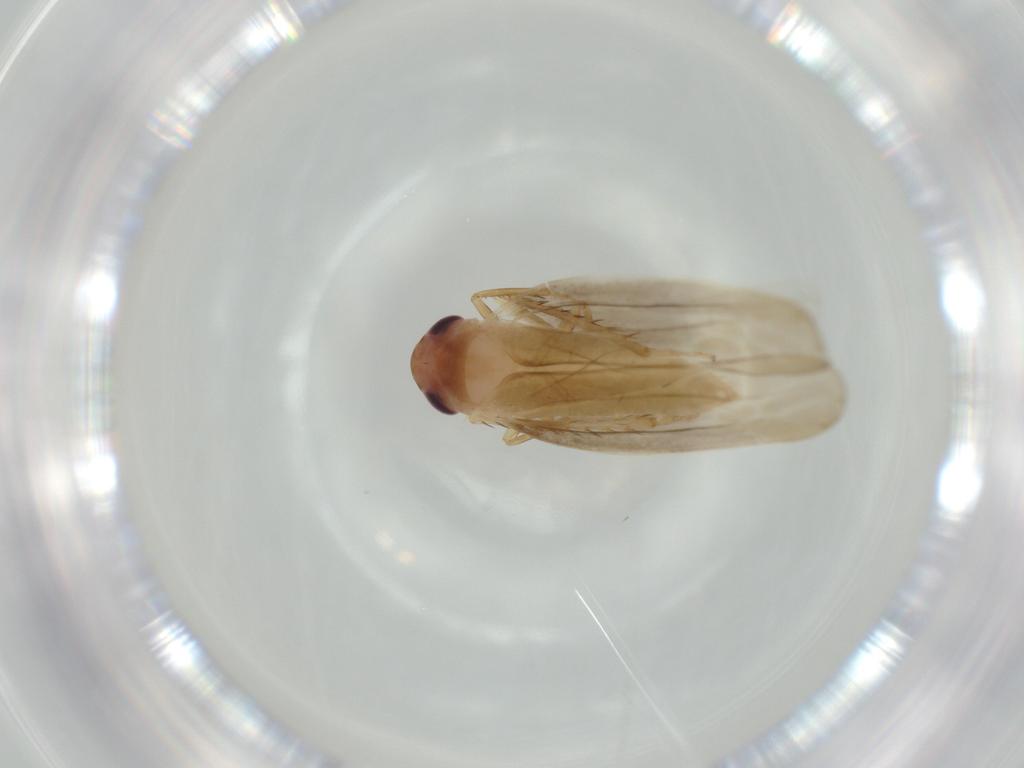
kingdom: Animalia
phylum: Arthropoda
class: Insecta
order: Hemiptera
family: Cicadellidae
